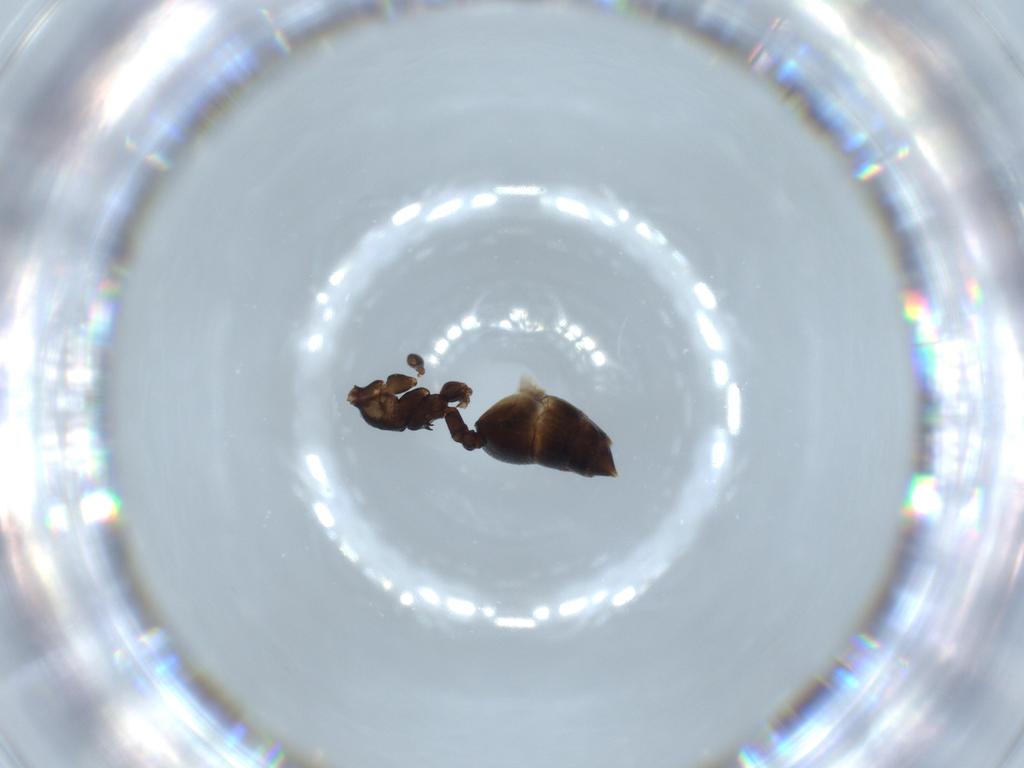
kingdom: Animalia
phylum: Arthropoda
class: Insecta
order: Hymenoptera
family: Formicidae
